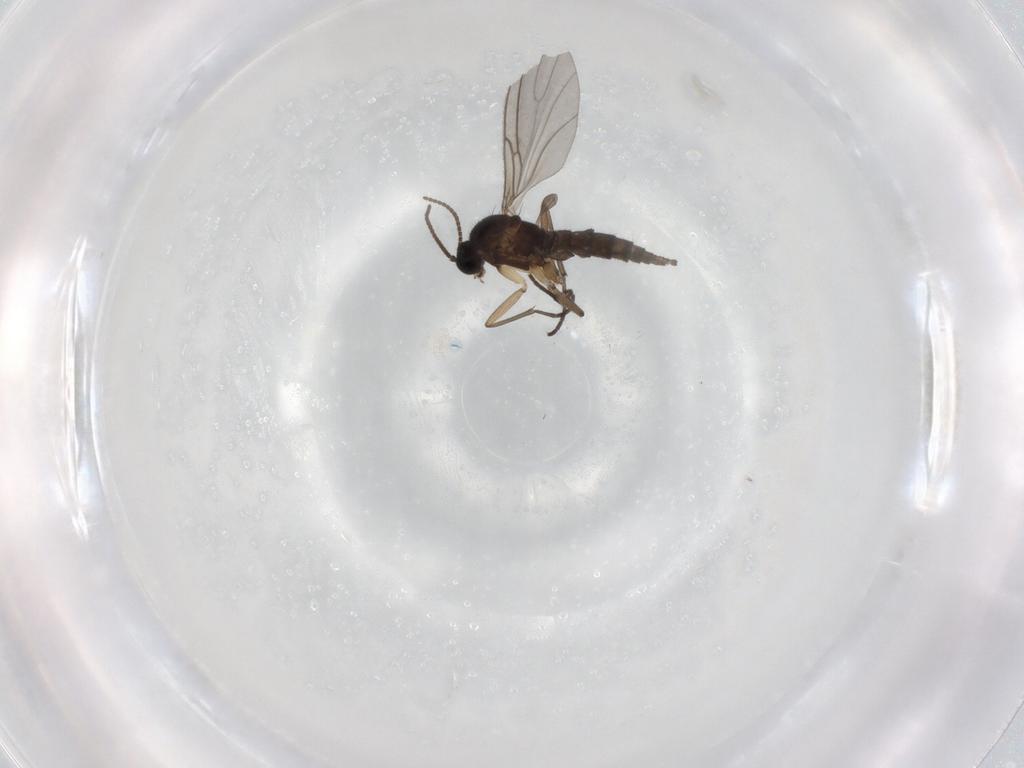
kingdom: Animalia
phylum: Arthropoda
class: Insecta
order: Diptera
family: Sciaridae
